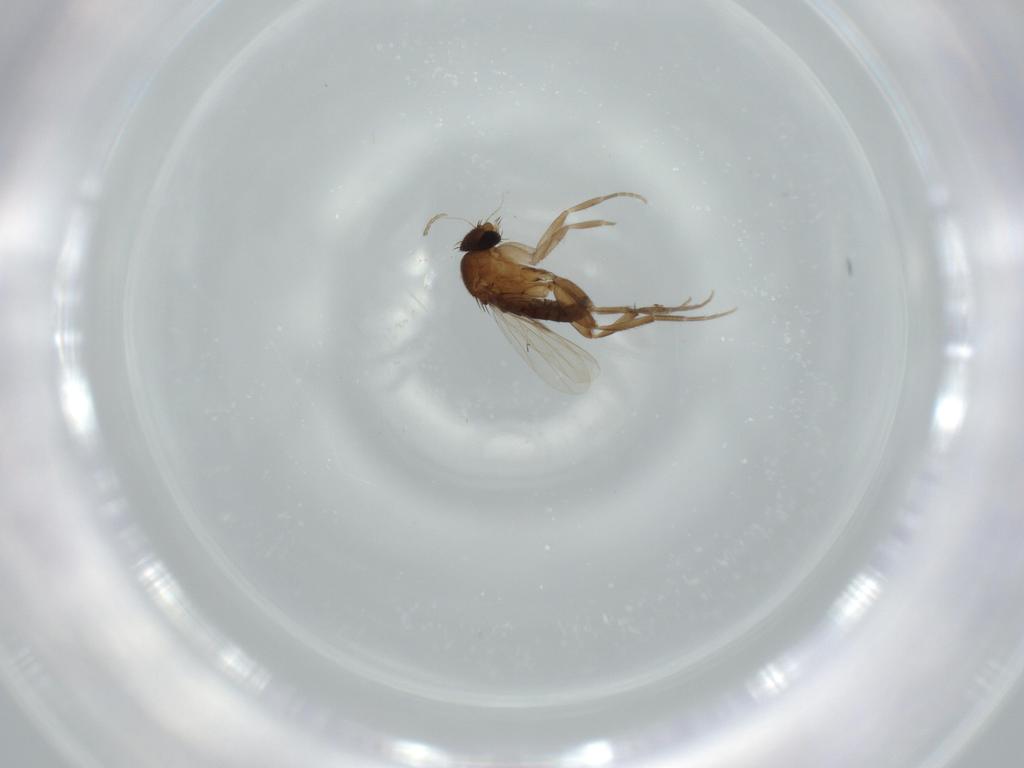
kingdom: Animalia
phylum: Arthropoda
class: Insecta
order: Diptera
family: Phoridae
